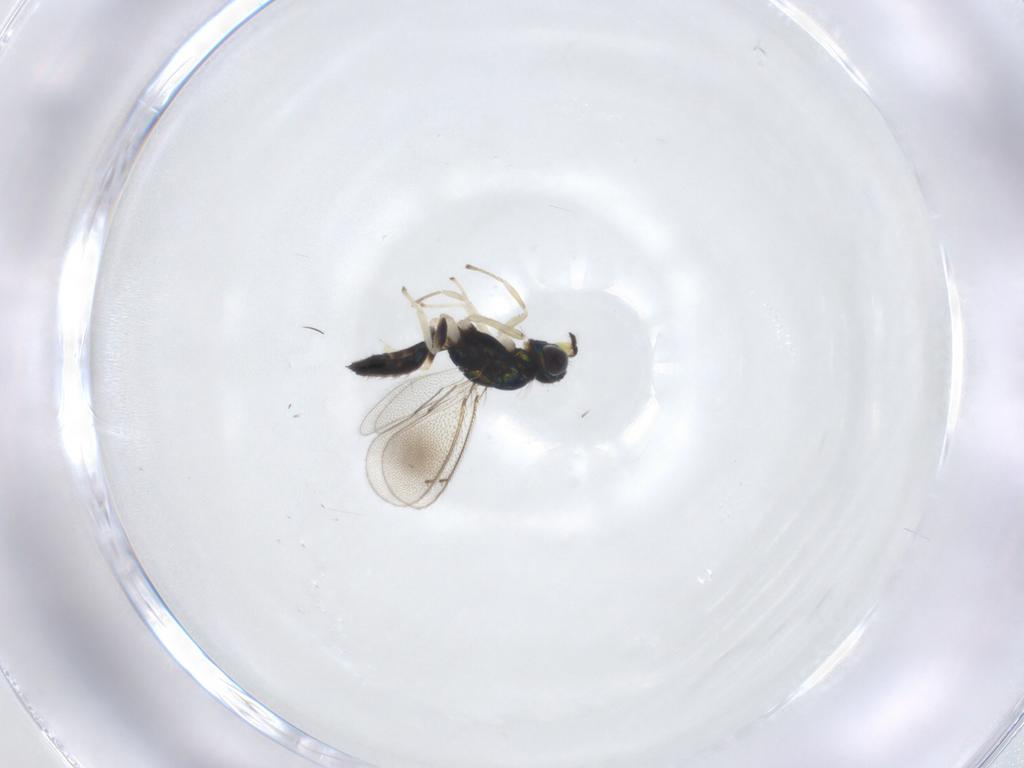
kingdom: Animalia
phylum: Arthropoda
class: Insecta
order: Hymenoptera
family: Eulophidae
